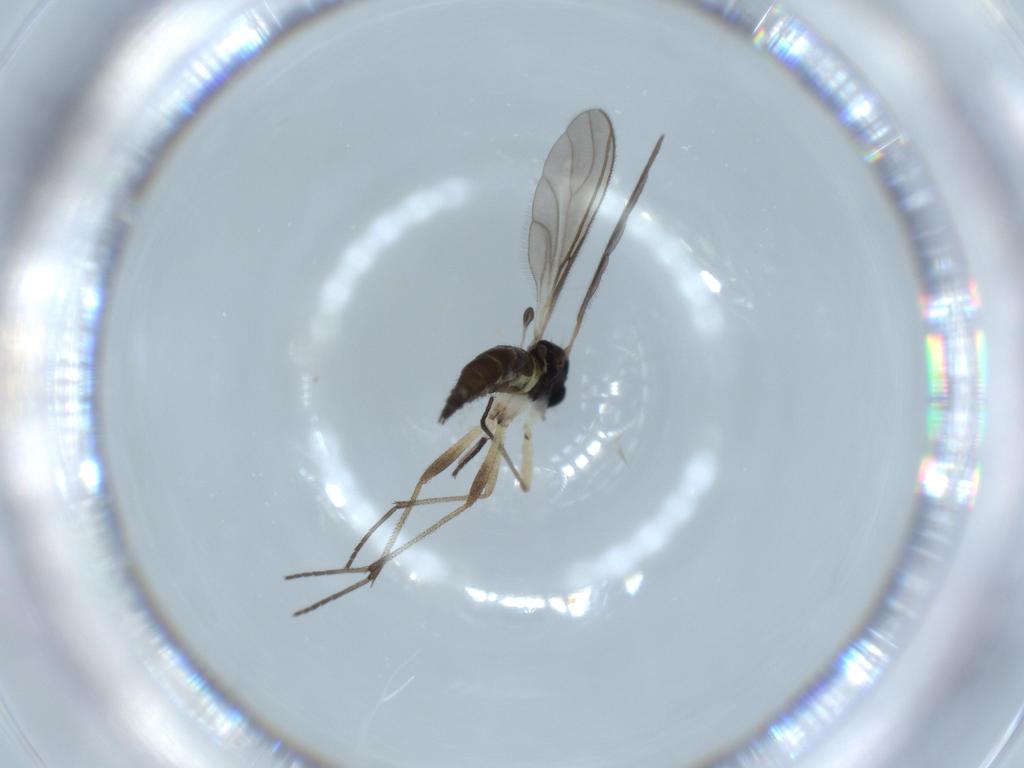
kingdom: Animalia
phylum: Arthropoda
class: Insecta
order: Diptera
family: Sciaridae
